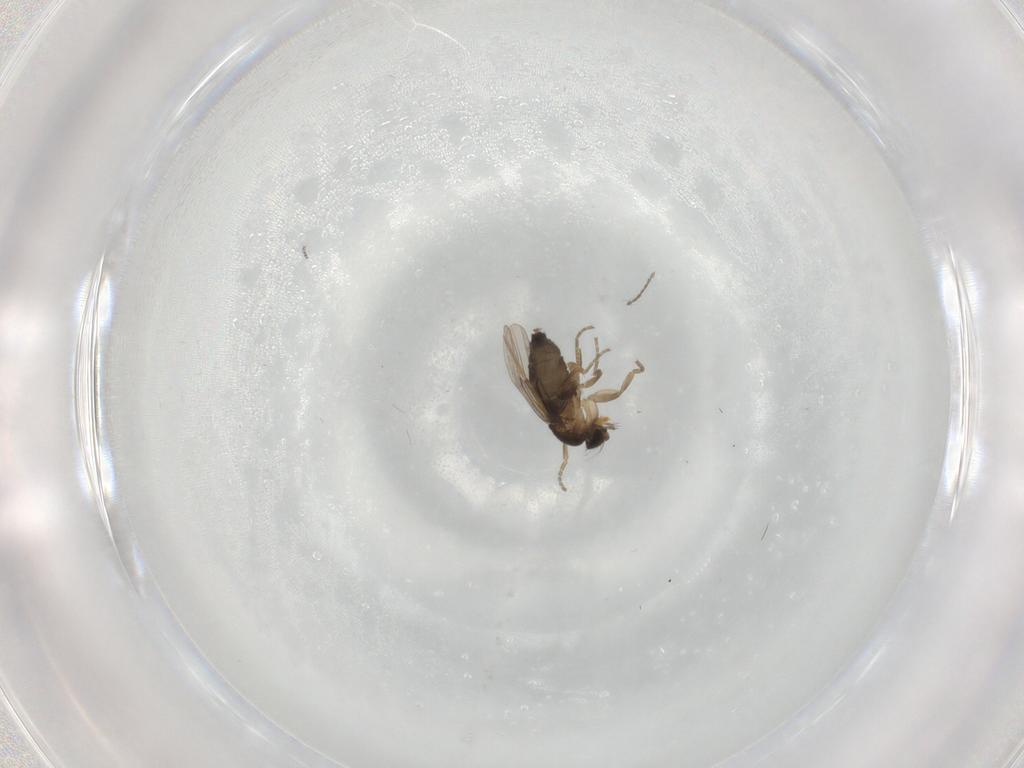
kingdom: Animalia
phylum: Arthropoda
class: Insecta
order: Diptera
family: Phoridae
